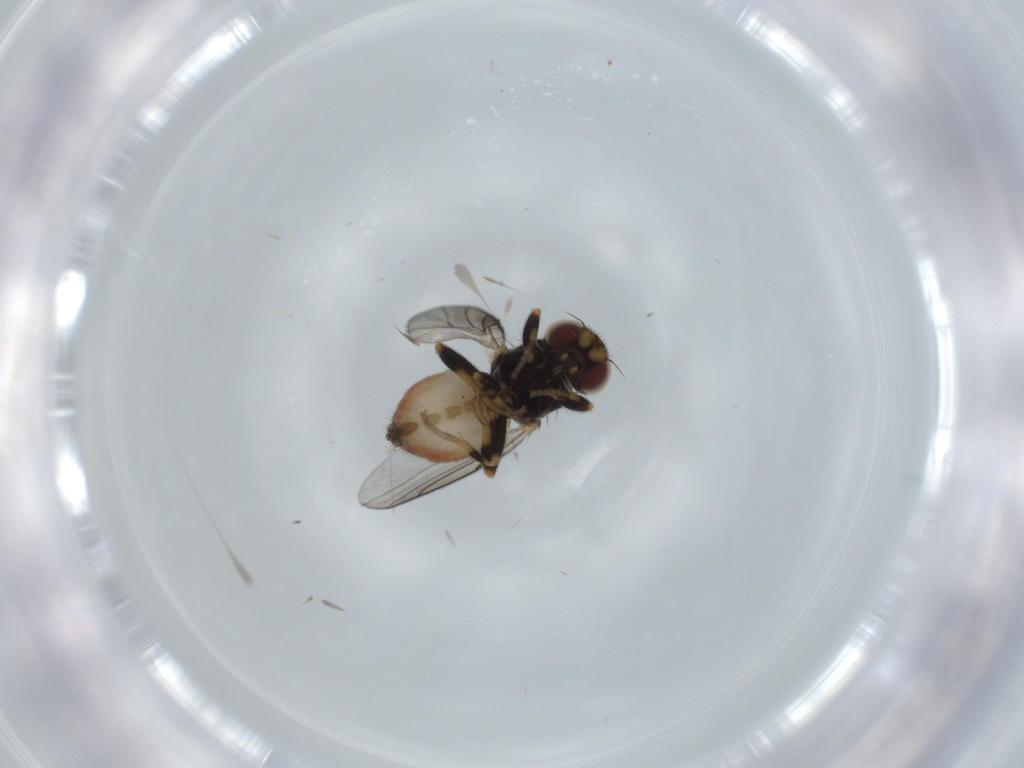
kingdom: Animalia
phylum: Arthropoda
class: Insecta
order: Diptera
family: Chloropidae
